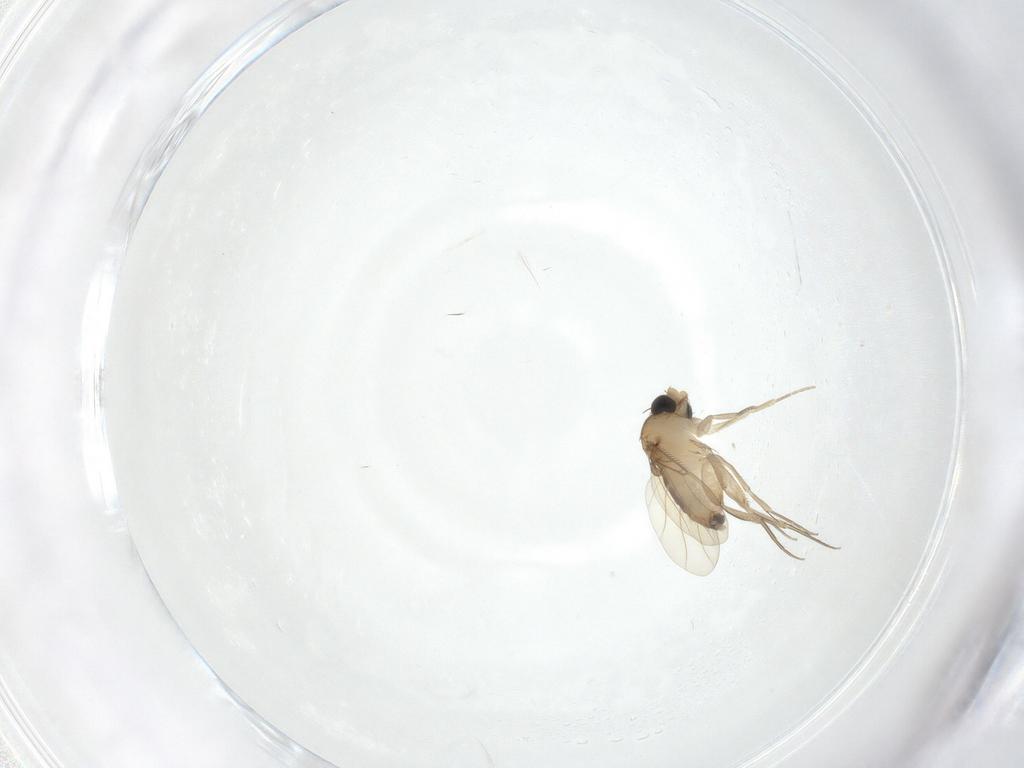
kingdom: Animalia
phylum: Arthropoda
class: Insecta
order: Diptera
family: Phoridae
